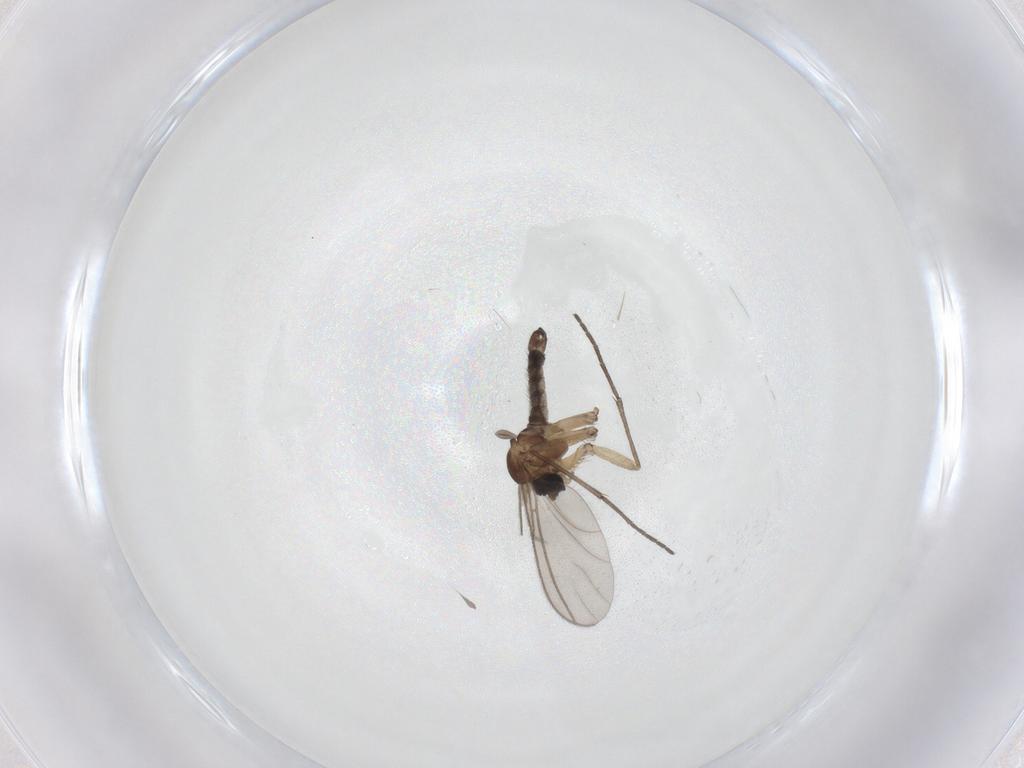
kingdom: Animalia
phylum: Arthropoda
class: Insecta
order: Diptera
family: Sciaridae
